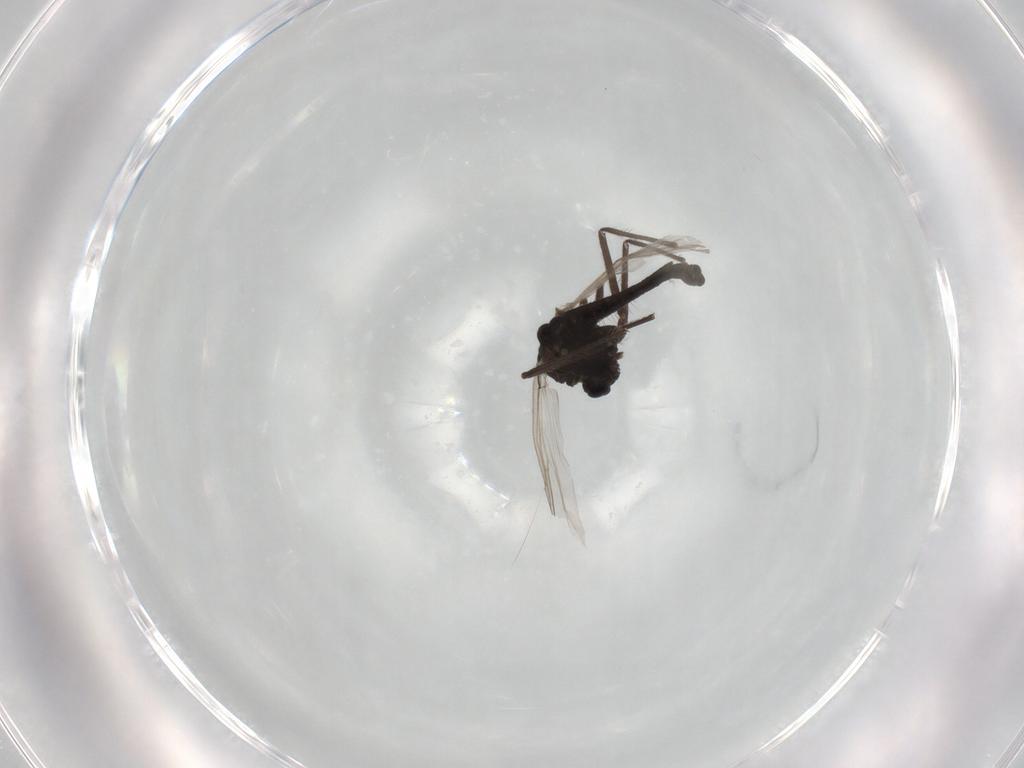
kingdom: Animalia
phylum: Arthropoda
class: Insecta
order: Diptera
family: Chironomidae
